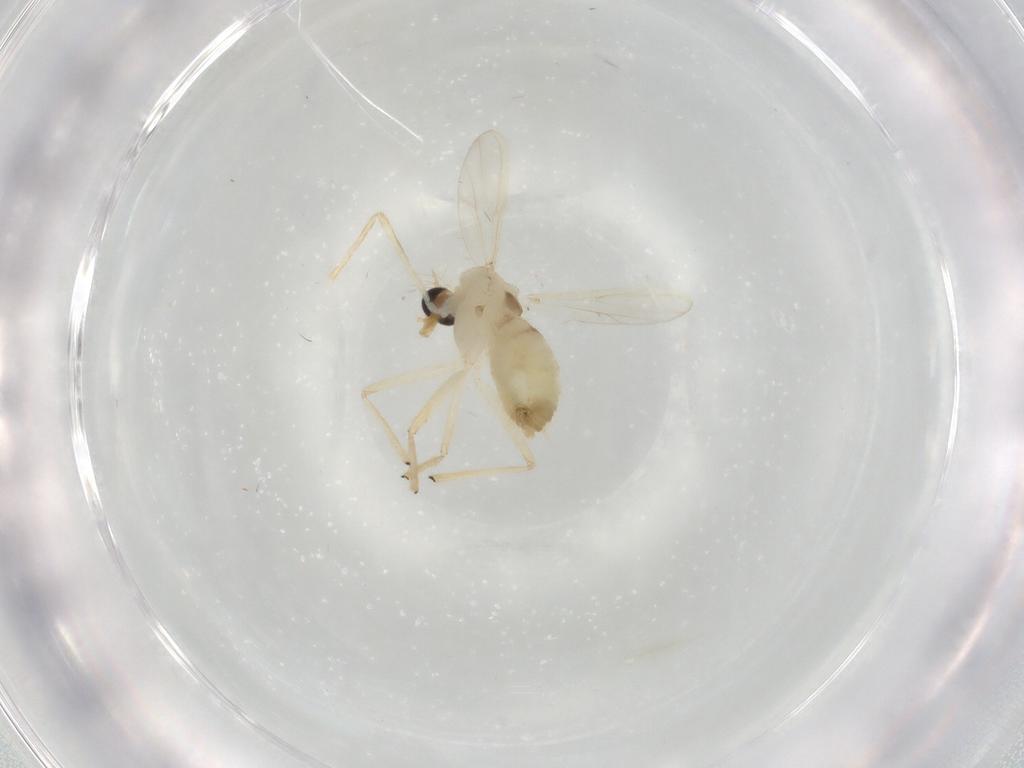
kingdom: Animalia
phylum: Arthropoda
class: Insecta
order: Diptera
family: Chironomidae
